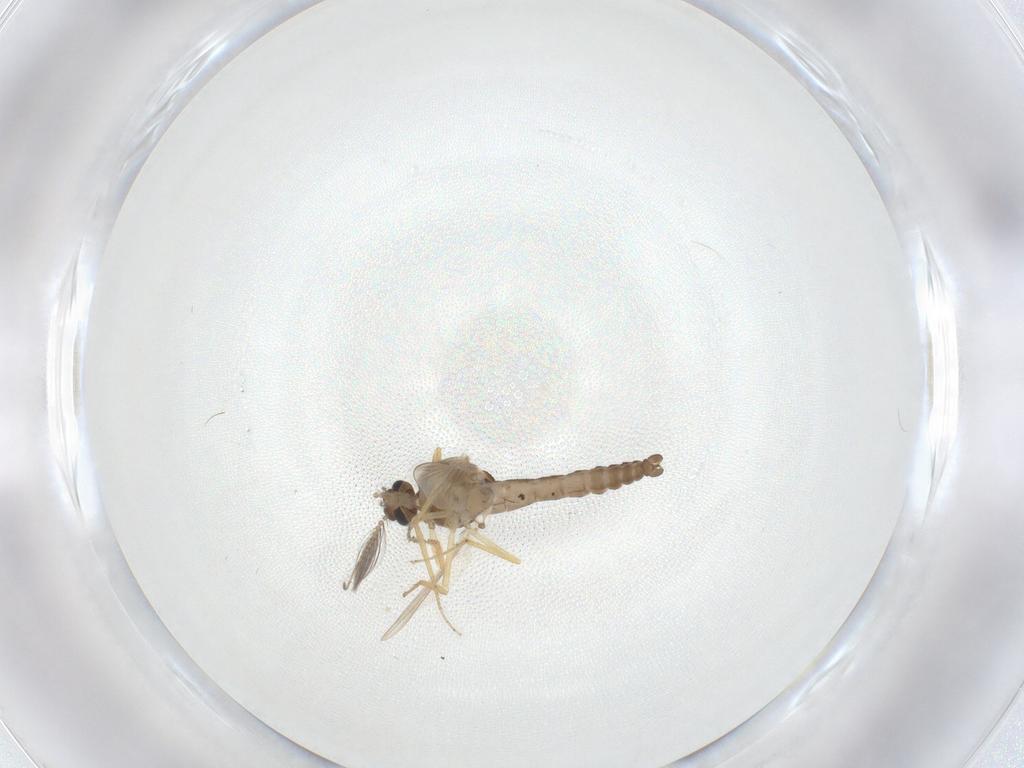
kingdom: Animalia
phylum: Arthropoda
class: Insecta
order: Diptera
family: Ceratopogonidae
